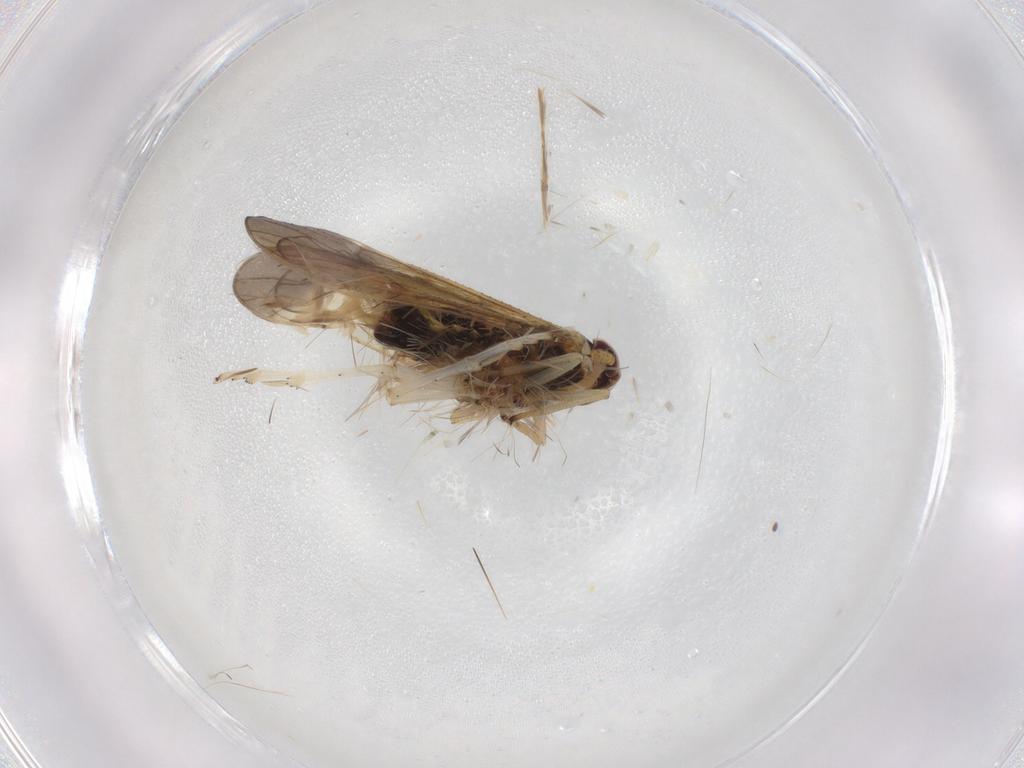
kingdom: Animalia
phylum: Arthropoda
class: Insecta
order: Hemiptera
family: Delphacidae
